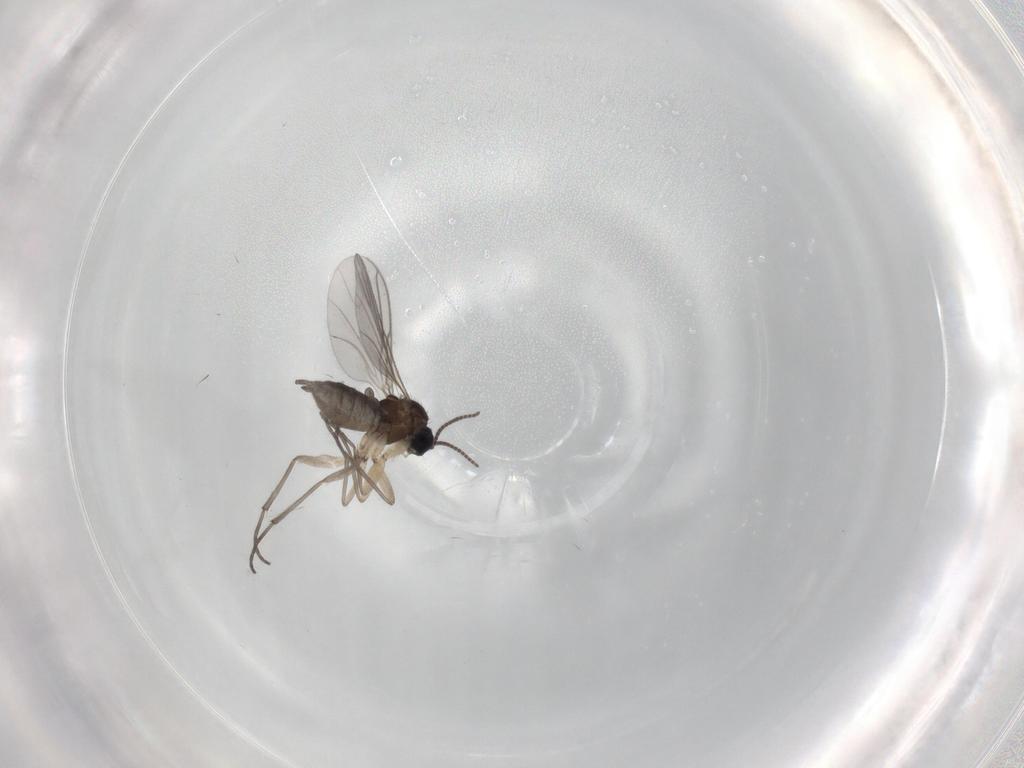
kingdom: Animalia
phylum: Arthropoda
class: Insecta
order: Diptera
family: Sciaridae
